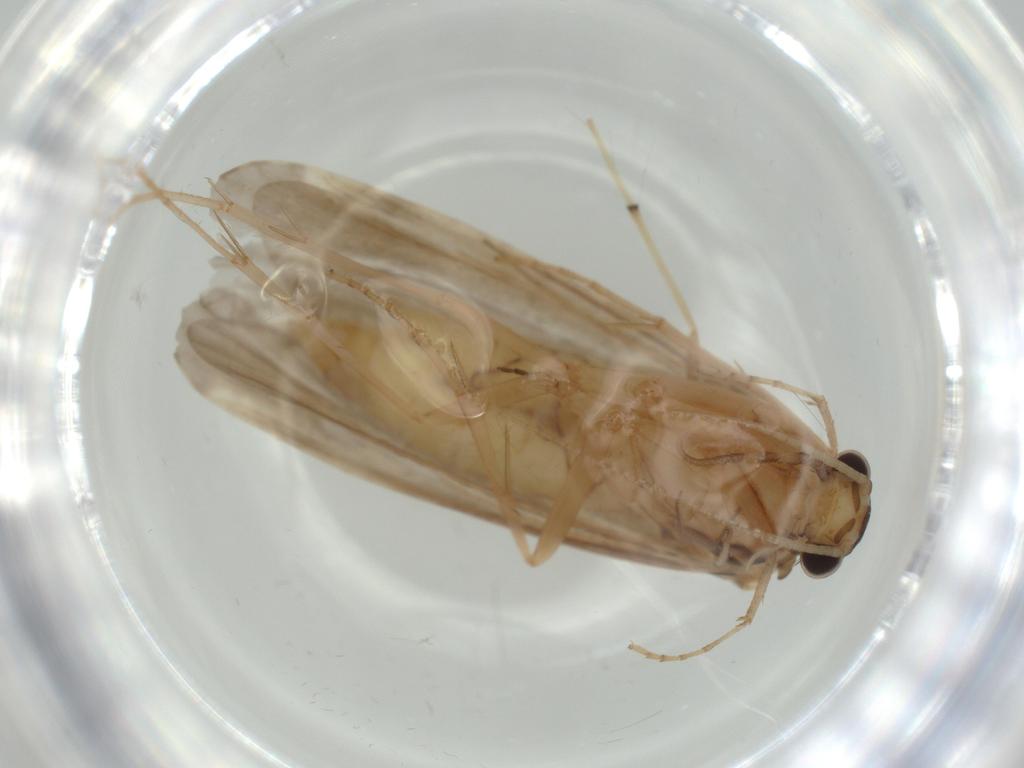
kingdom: Animalia
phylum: Arthropoda
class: Insecta
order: Trichoptera
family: Ecnomidae
